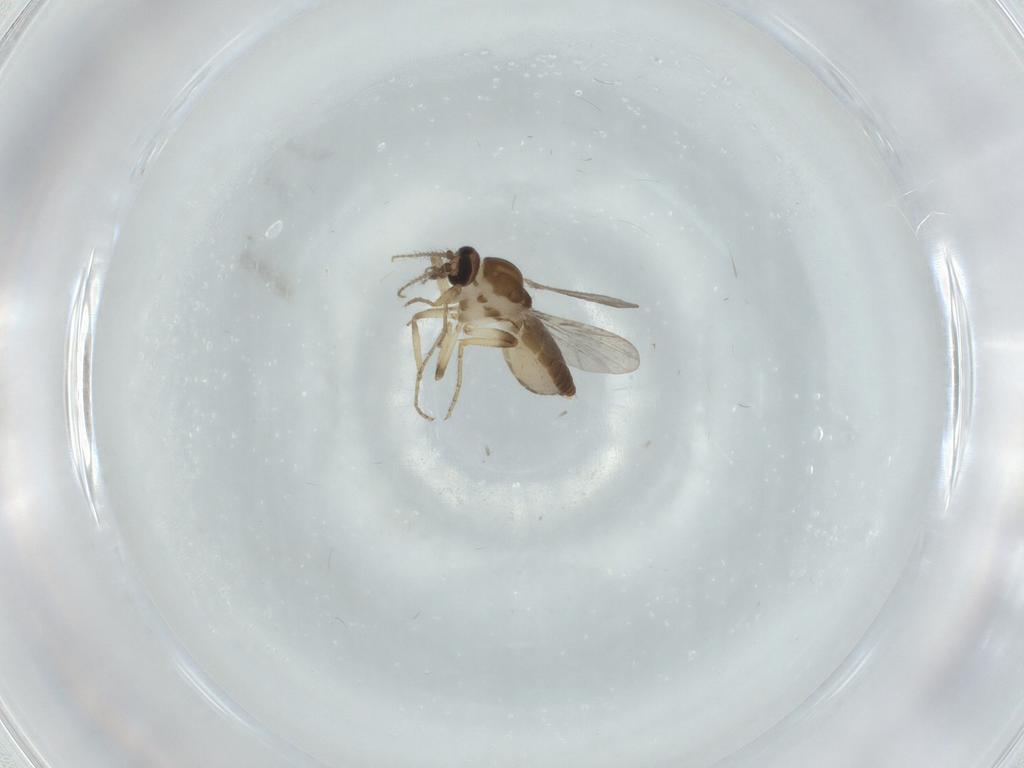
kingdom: Animalia
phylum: Arthropoda
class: Insecta
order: Diptera
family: Ceratopogonidae
